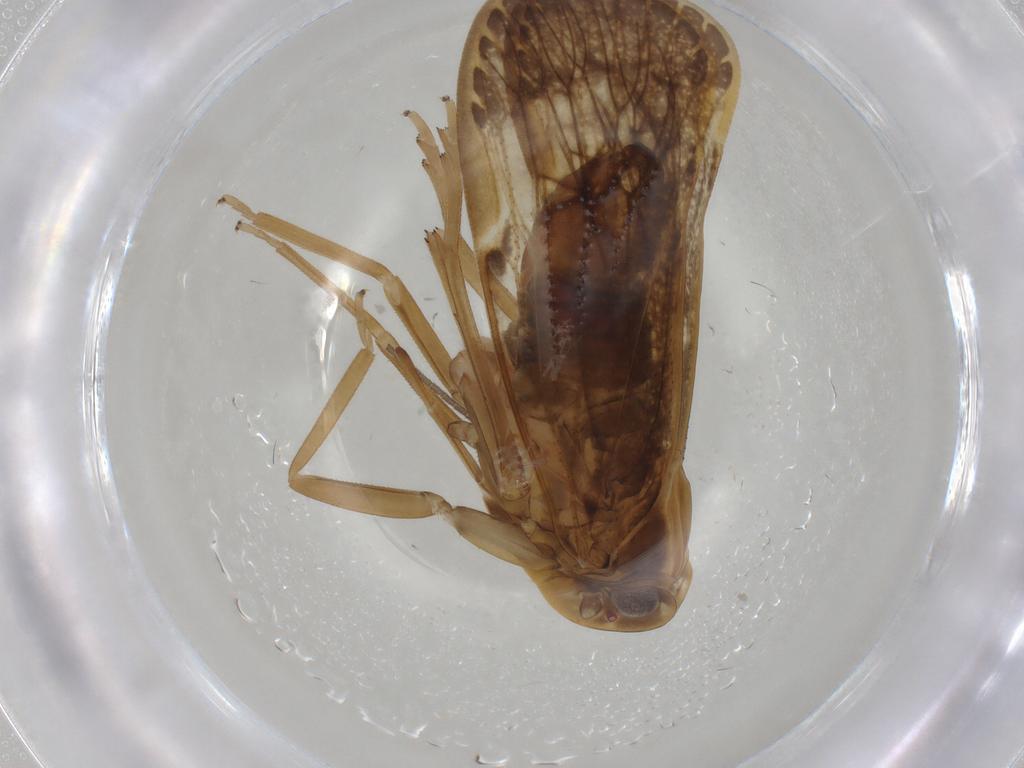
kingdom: Animalia
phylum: Arthropoda
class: Insecta
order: Hemiptera
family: Cixiidae
